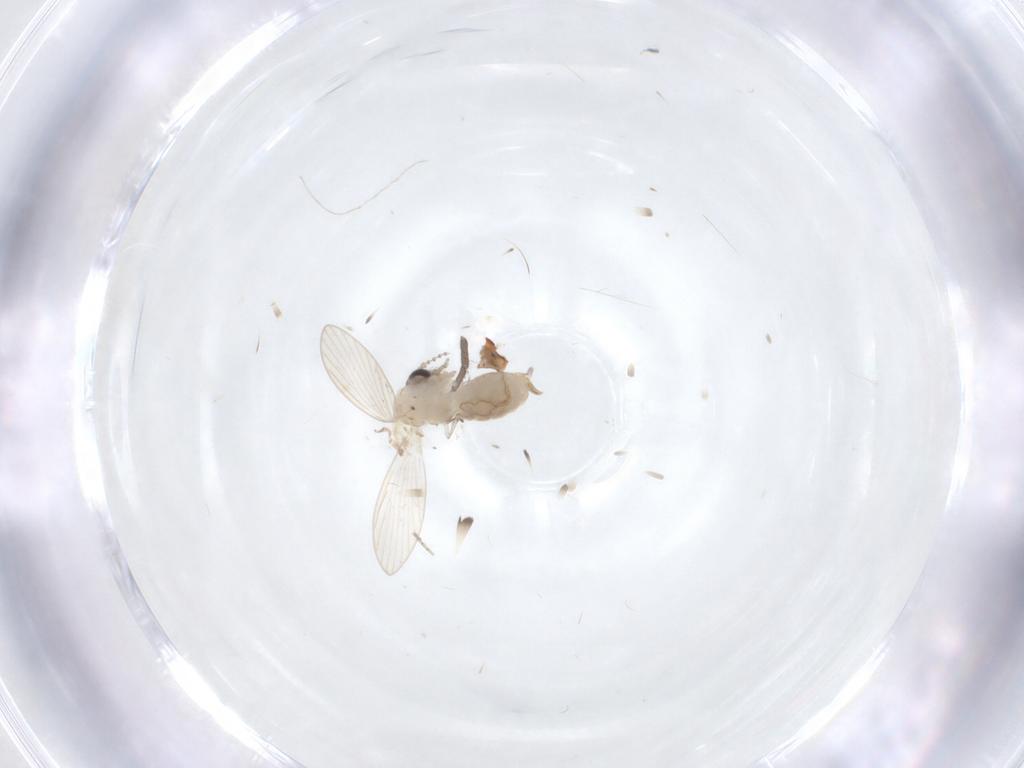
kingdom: Animalia
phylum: Arthropoda
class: Insecta
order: Diptera
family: Psychodidae
